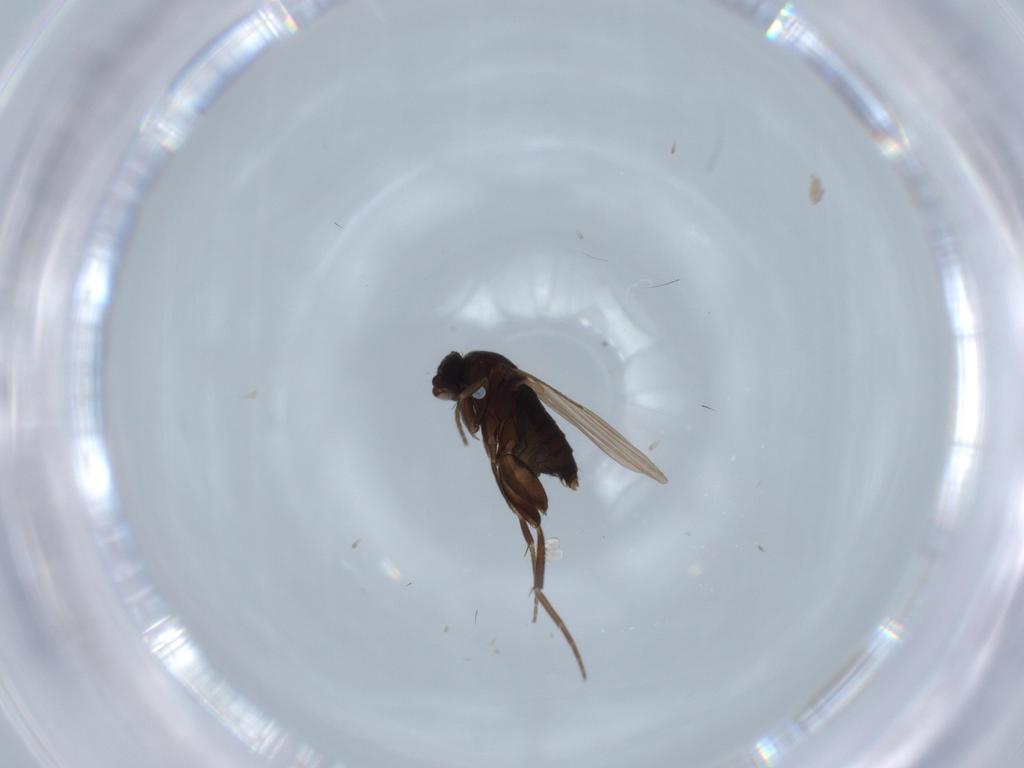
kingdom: Animalia
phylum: Arthropoda
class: Insecta
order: Diptera
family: Phoridae
